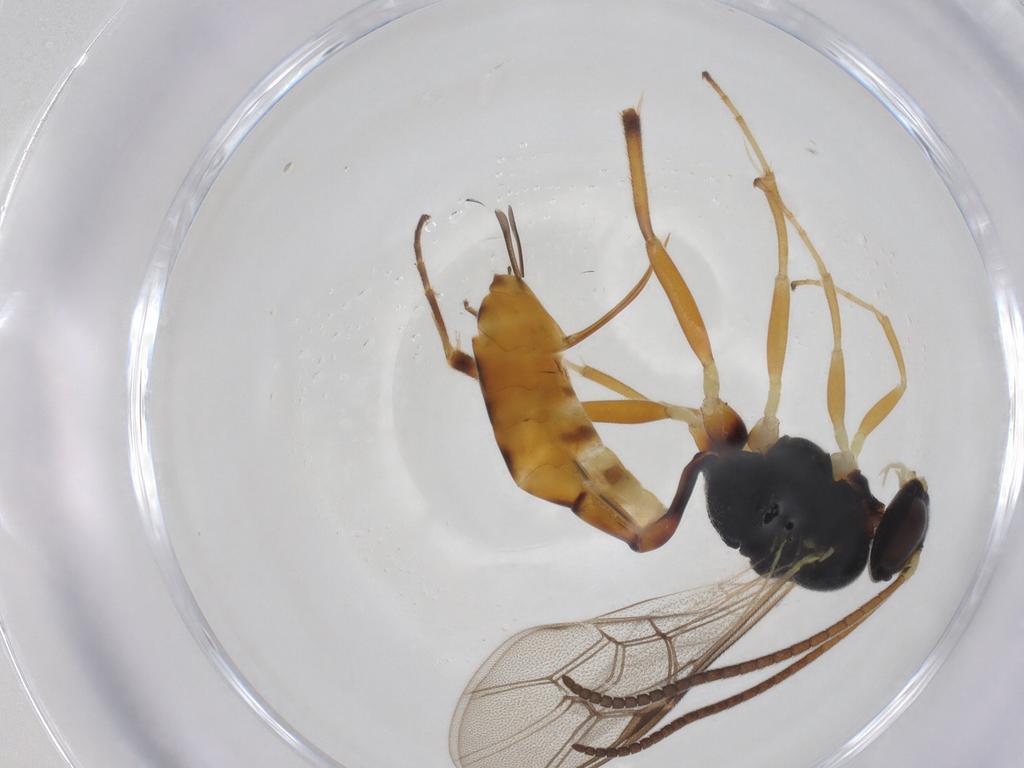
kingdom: Animalia
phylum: Arthropoda
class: Insecta
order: Hymenoptera
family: Ichneumonidae
